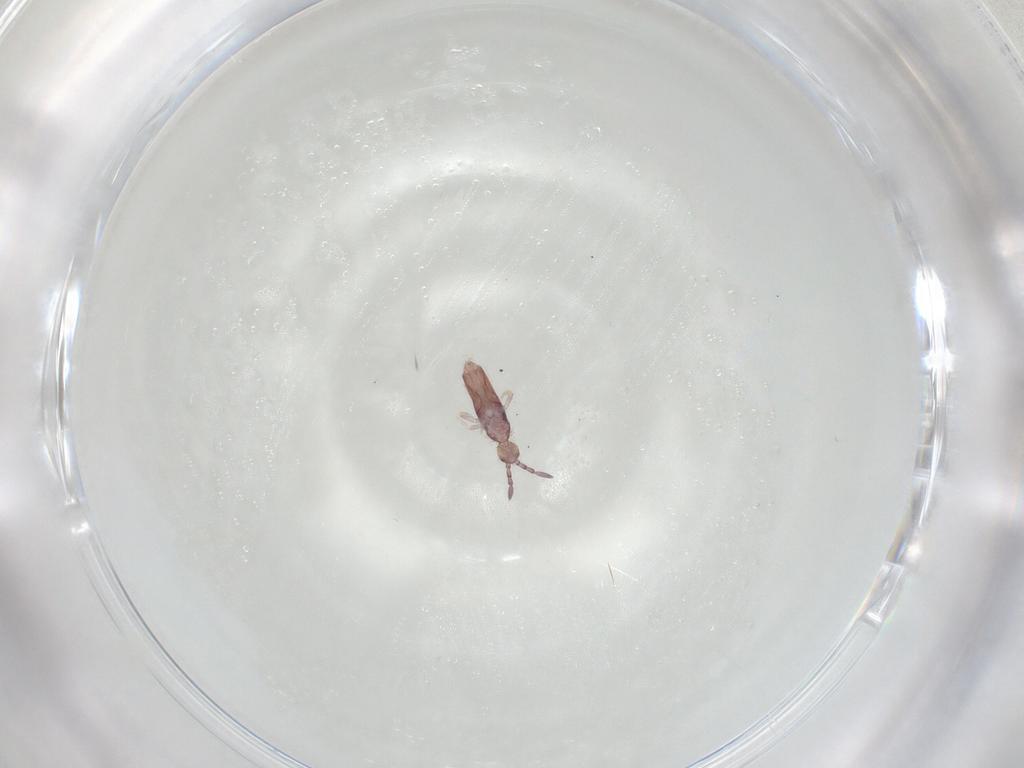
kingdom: Animalia
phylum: Arthropoda
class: Collembola
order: Entomobryomorpha
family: Entomobryidae
